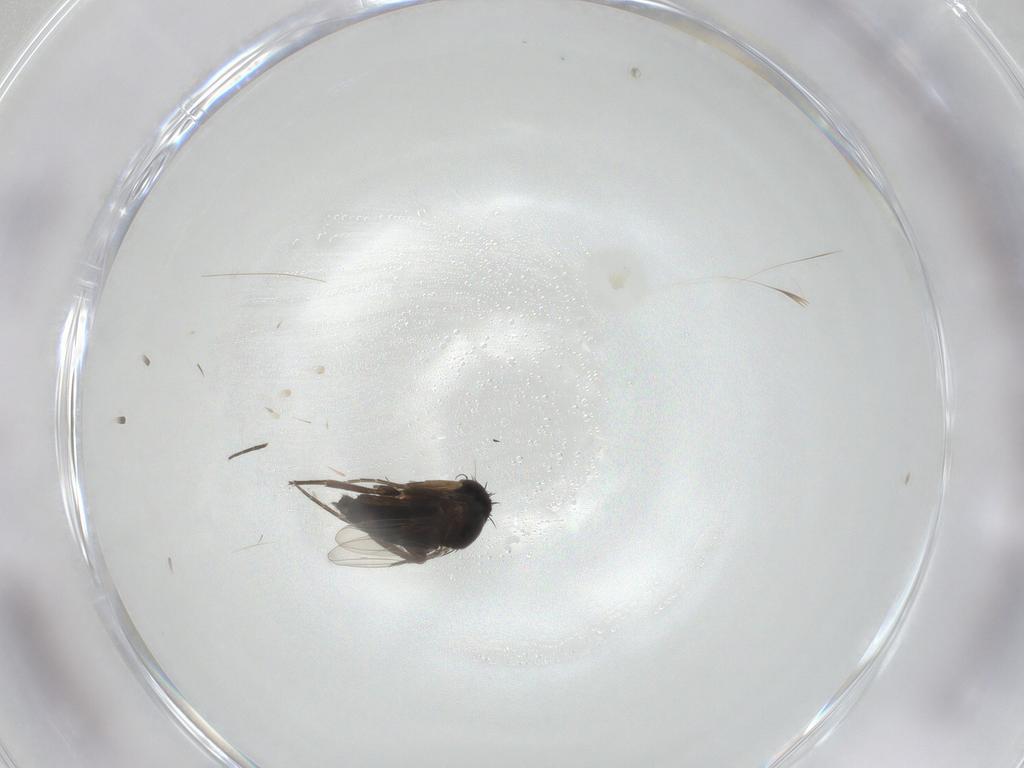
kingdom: Animalia
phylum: Arthropoda
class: Insecta
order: Diptera
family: Phoridae
